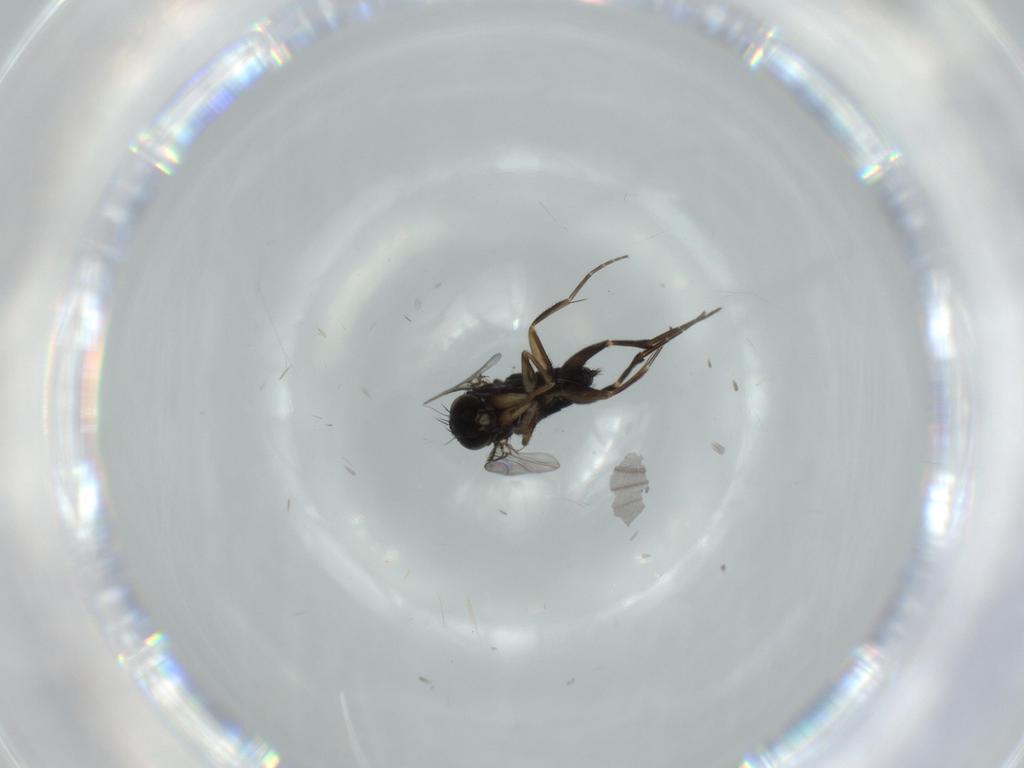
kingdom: Animalia
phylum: Arthropoda
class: Insecta
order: Diptera
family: Phoridae
